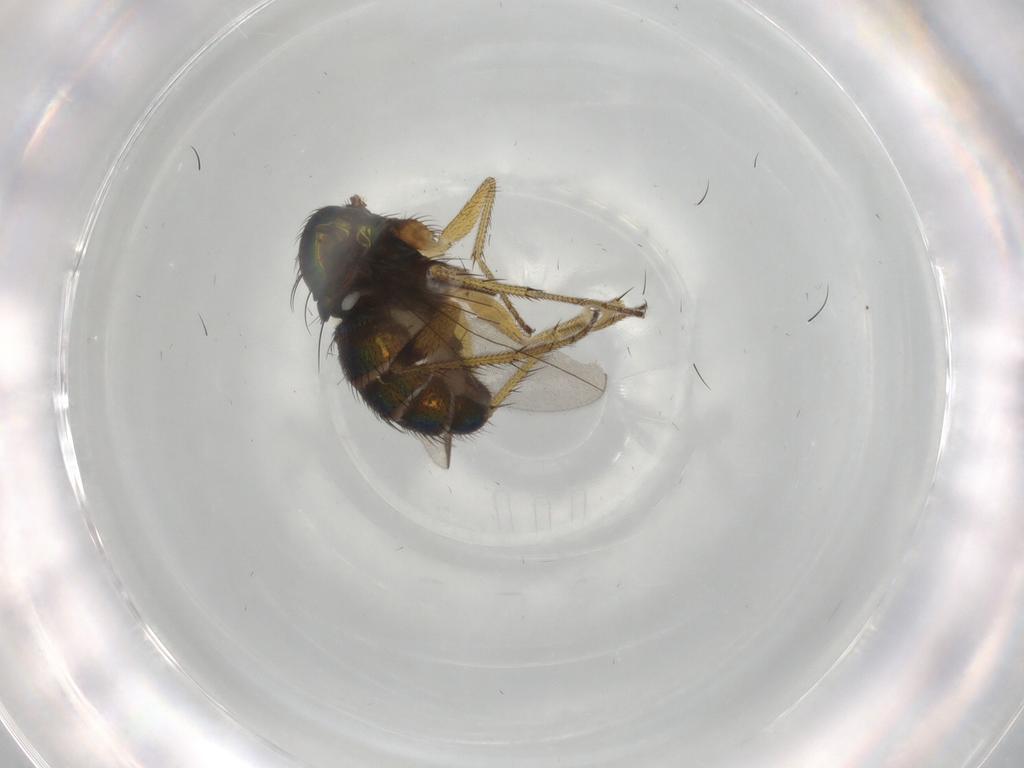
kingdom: Animalia
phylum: Arthropoda
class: Insecta
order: Diptera
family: Dolichopodidae
